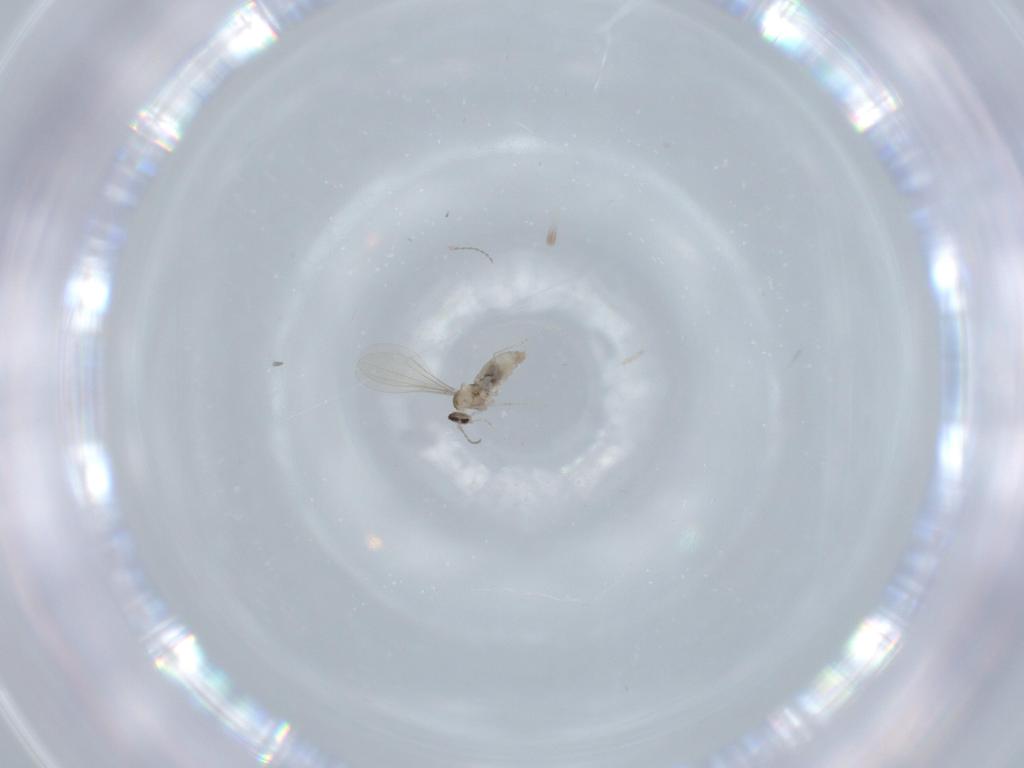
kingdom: Animalia
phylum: Arthropoda
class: Insecta
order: Diptera
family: Cecidomyiidae
